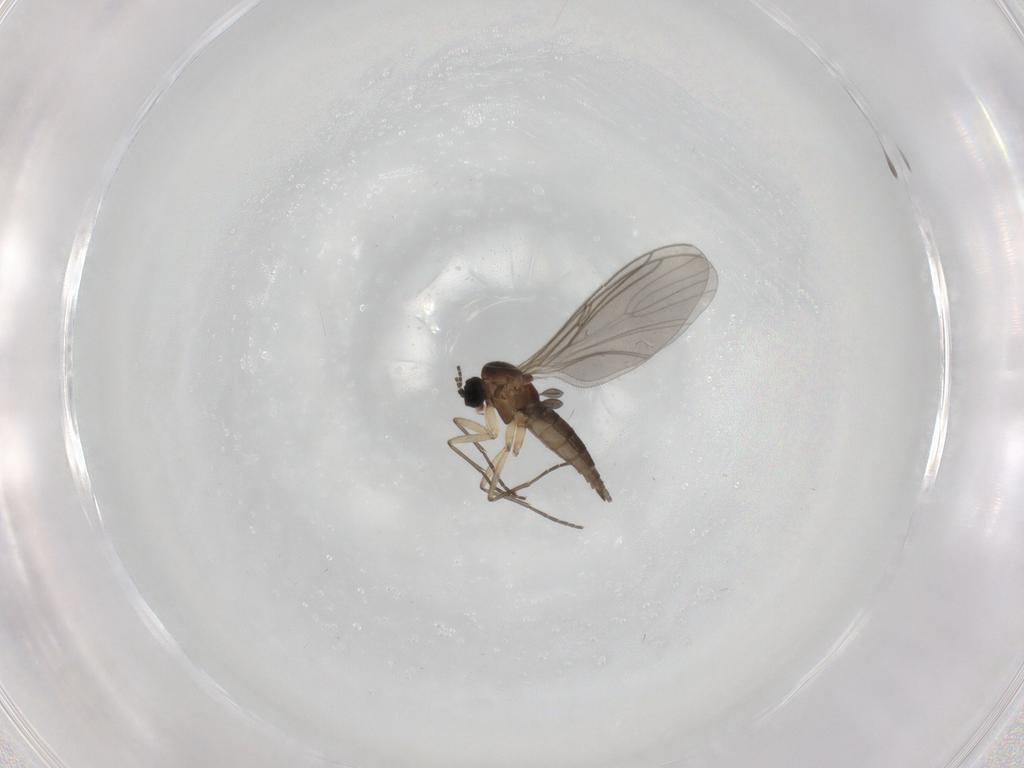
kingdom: Animalia
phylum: Arthropoda
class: Insecta
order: Diptera
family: Sciaridae
